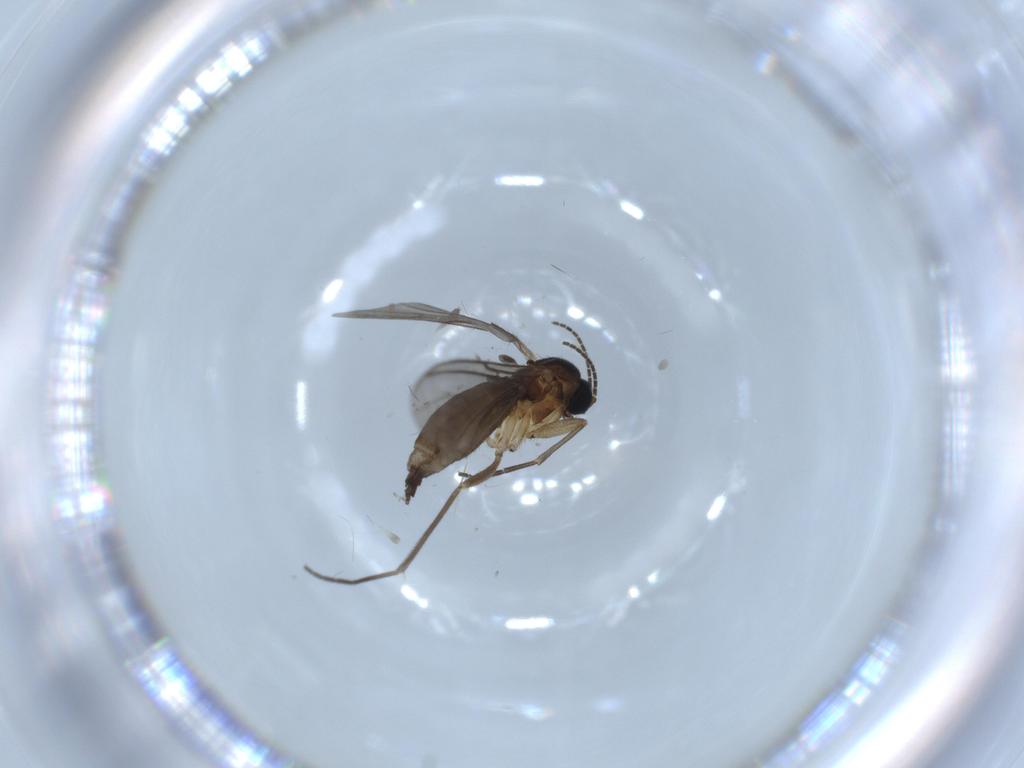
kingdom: Animalia
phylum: Arthropoda
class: Insecta
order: Diptera
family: Sciaridae
